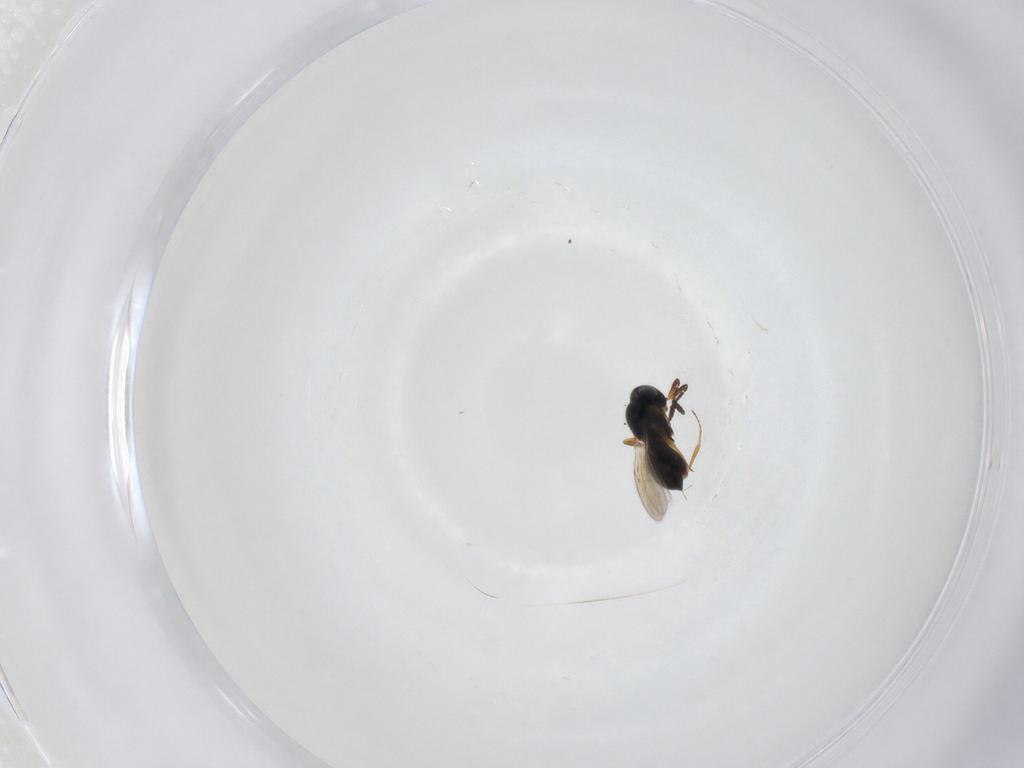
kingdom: Animalia
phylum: Arthropoda
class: Insecta
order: Hymenoptera
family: Scelionidae
